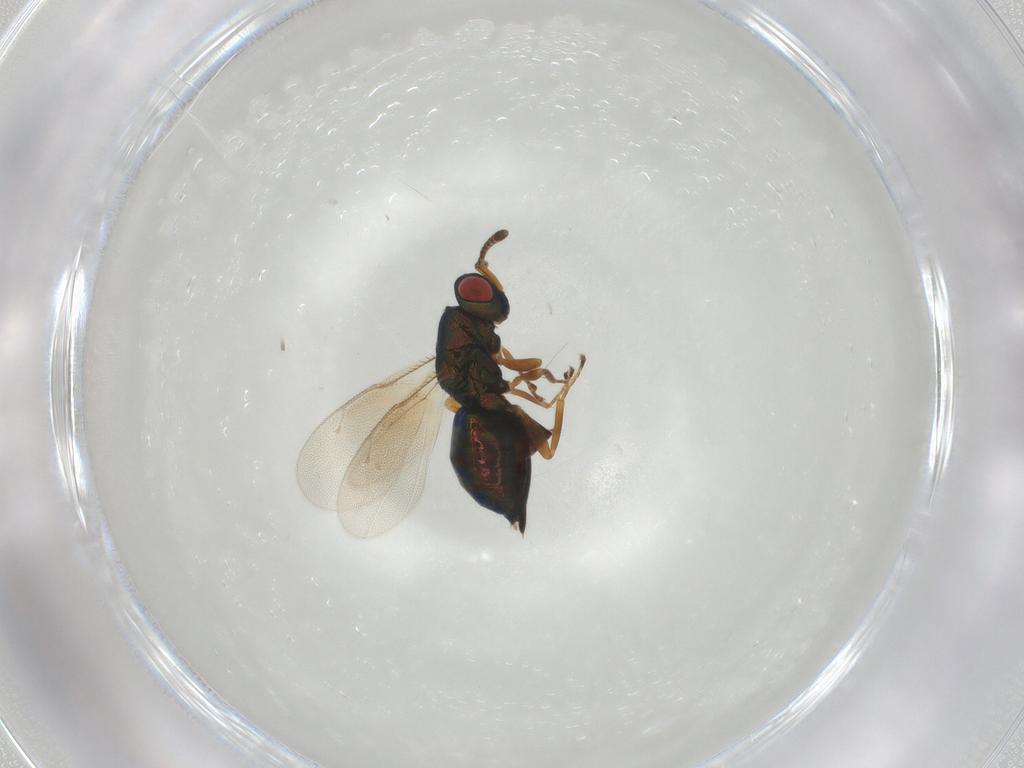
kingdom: Animalia
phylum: Arthropoda
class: Insecta
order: Hymenoptera
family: Pteromalidae
